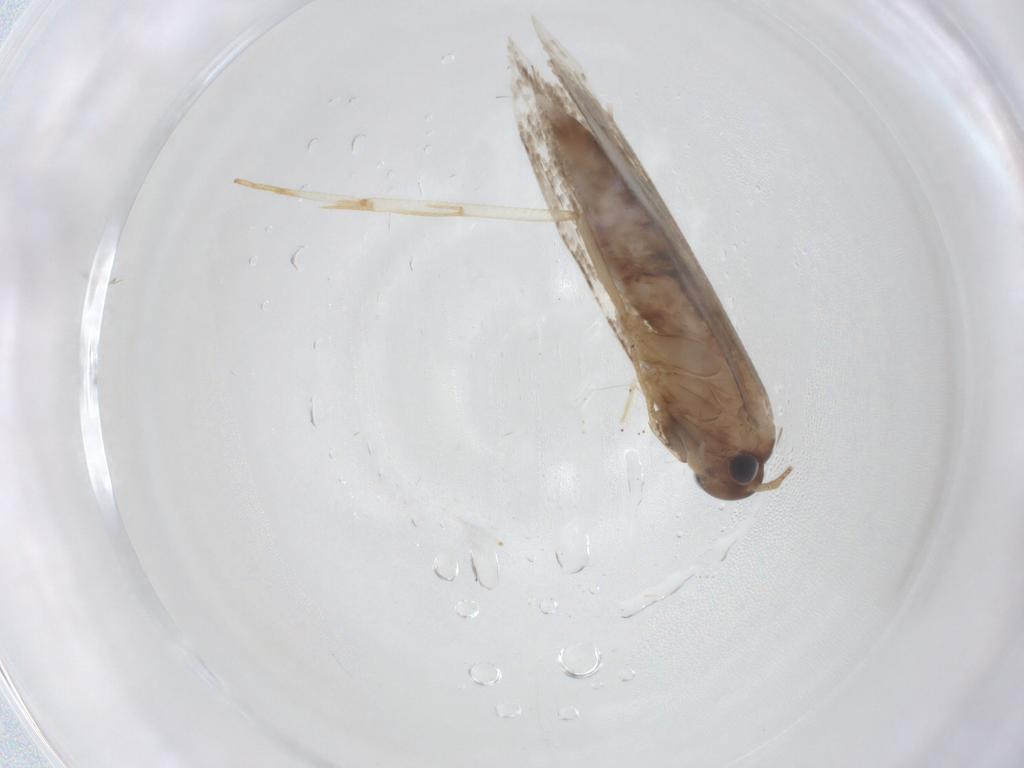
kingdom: Animalia
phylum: Arthropoda
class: Insecta
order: Lepidoptera
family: Blastobasidae
